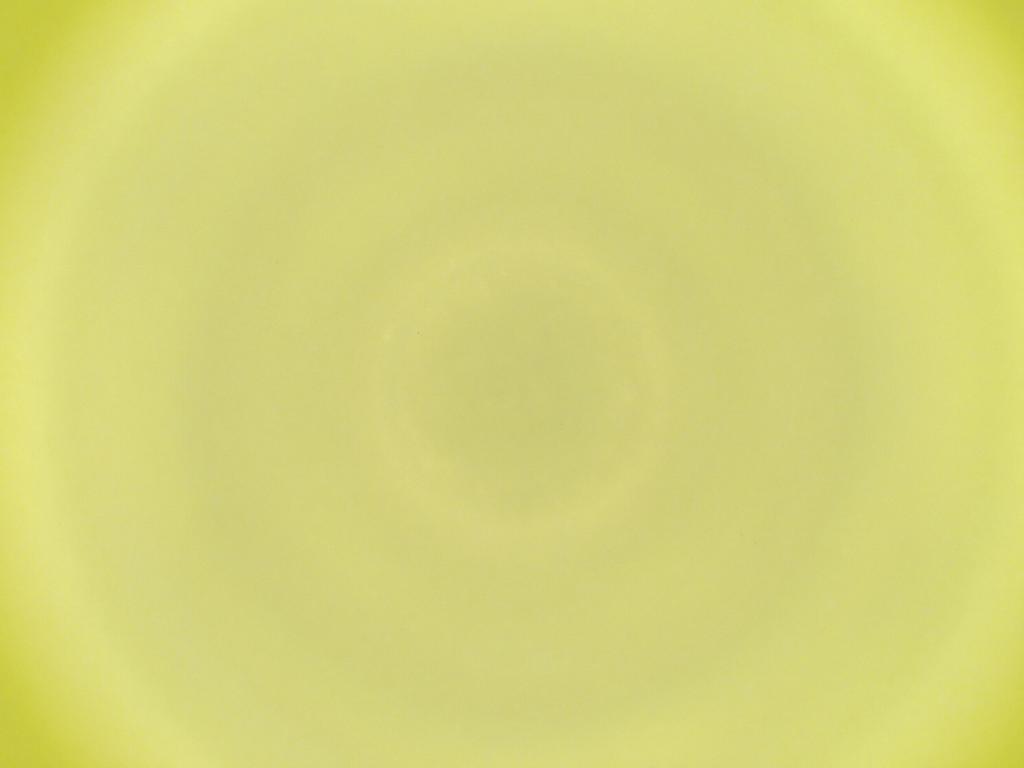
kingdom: Animalia
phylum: Arthropoda
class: Insecta
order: Diptera
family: Cecidomyiidae
